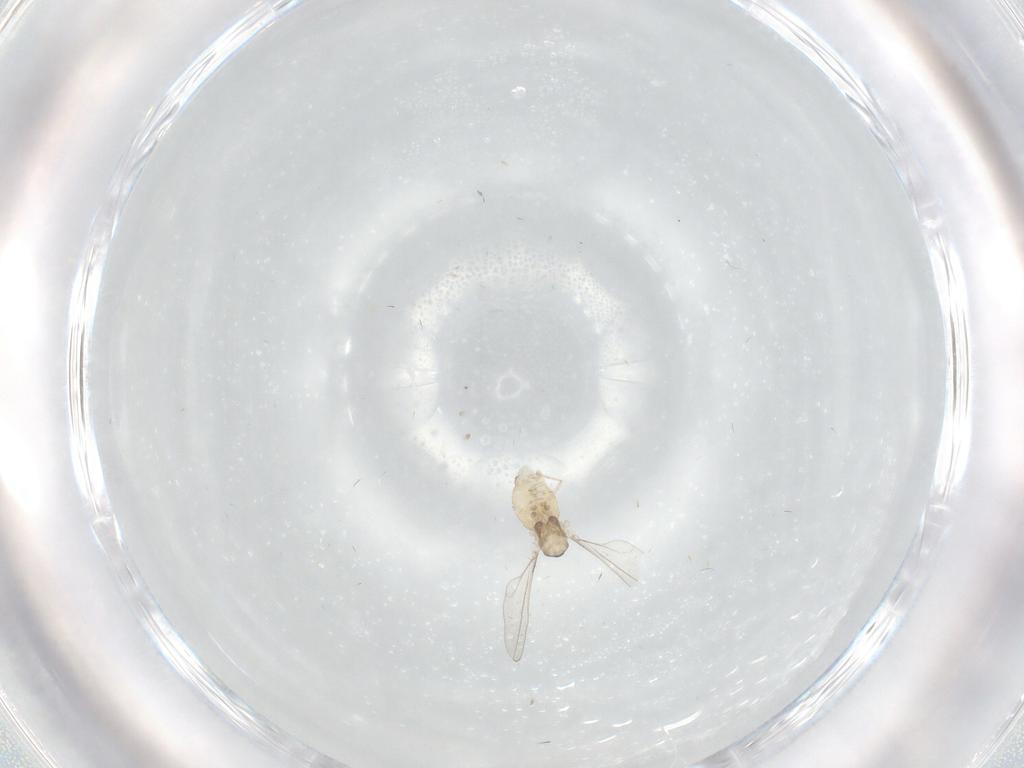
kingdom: Animalia
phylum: Arthropoda
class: Insecta
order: Diptera
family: Cecidomyiidae
